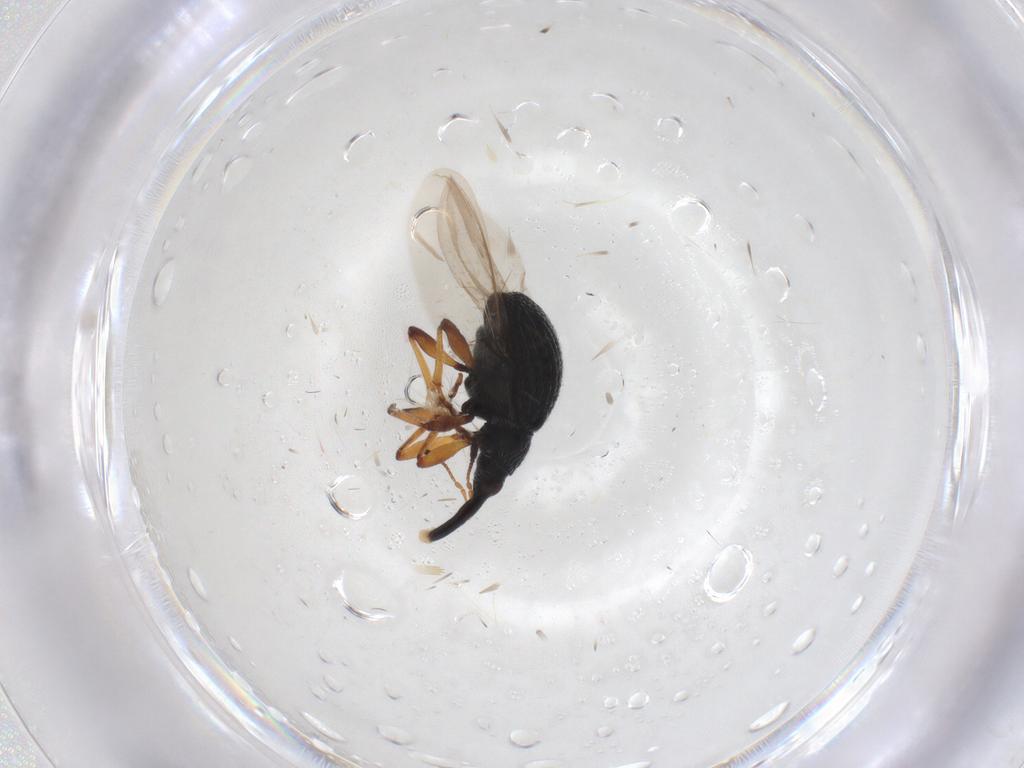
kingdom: Animalia
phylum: Arthropoda
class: Insecta
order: Coleoptera
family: Brentidae
